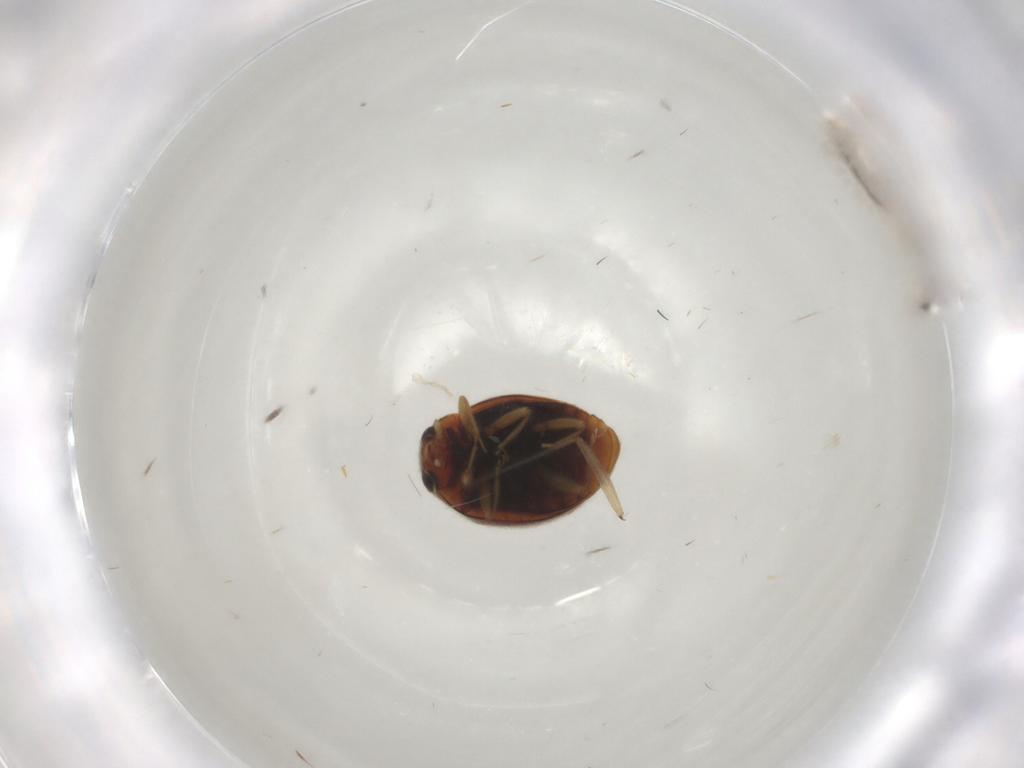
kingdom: Animalia
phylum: Arthropoda
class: Insecta
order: Coleoptera
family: Coccinellidae
